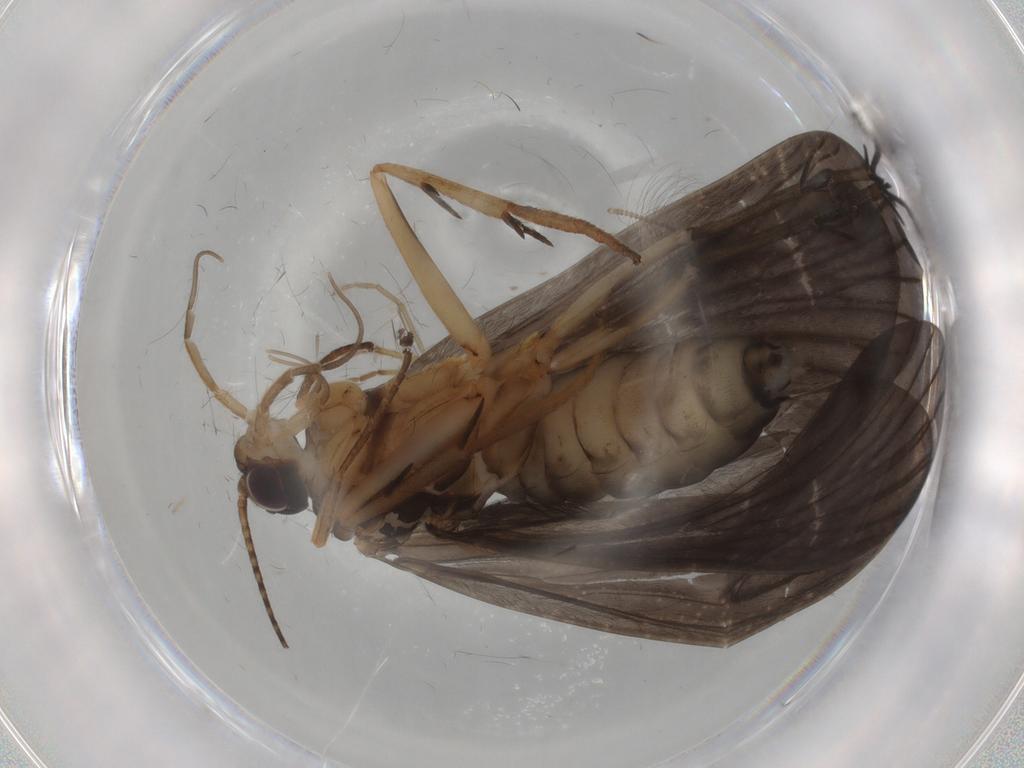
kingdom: Animalia
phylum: Arthropoda
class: Insecta
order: Trichoptera
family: Philopotamidae
